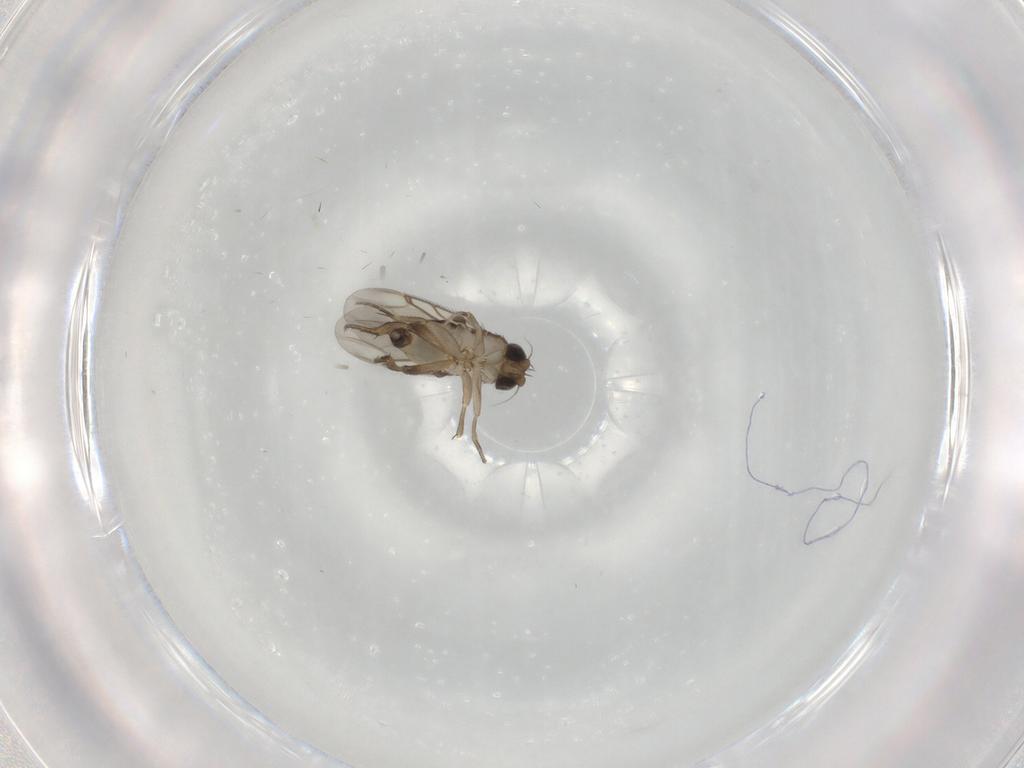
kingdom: Animalia
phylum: Arthropoda
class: Insecta
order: Diptera
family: Phoridae
